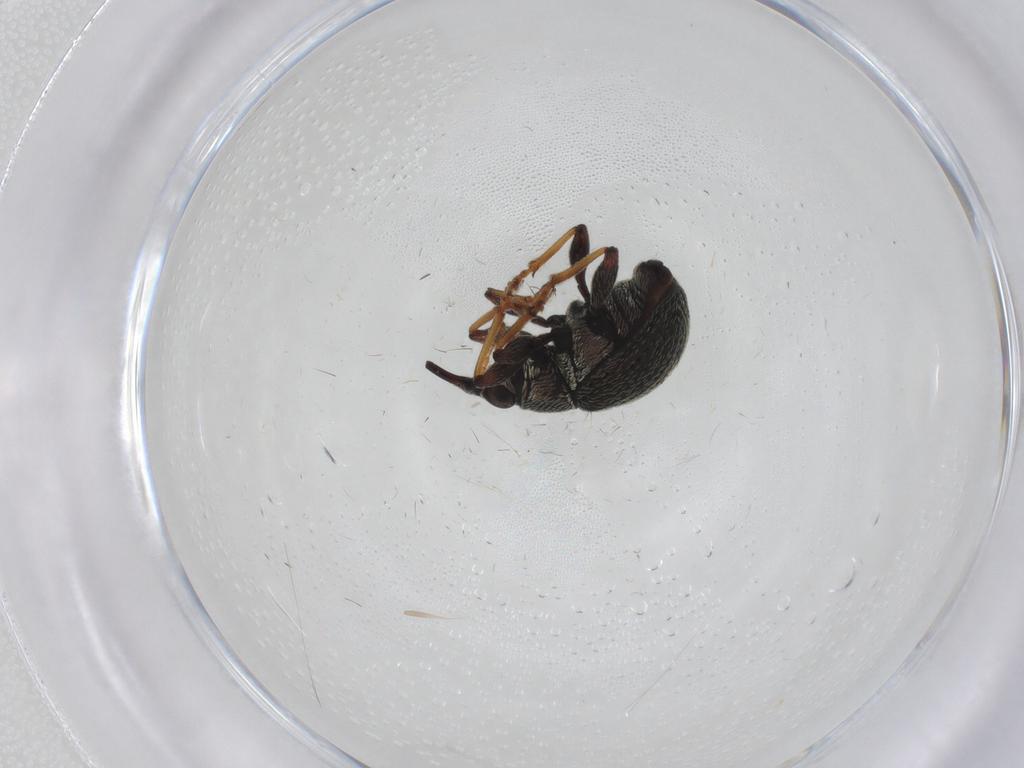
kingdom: Animalia
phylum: Arthropoda
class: Insecta
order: Coleoptera
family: Brentidae
